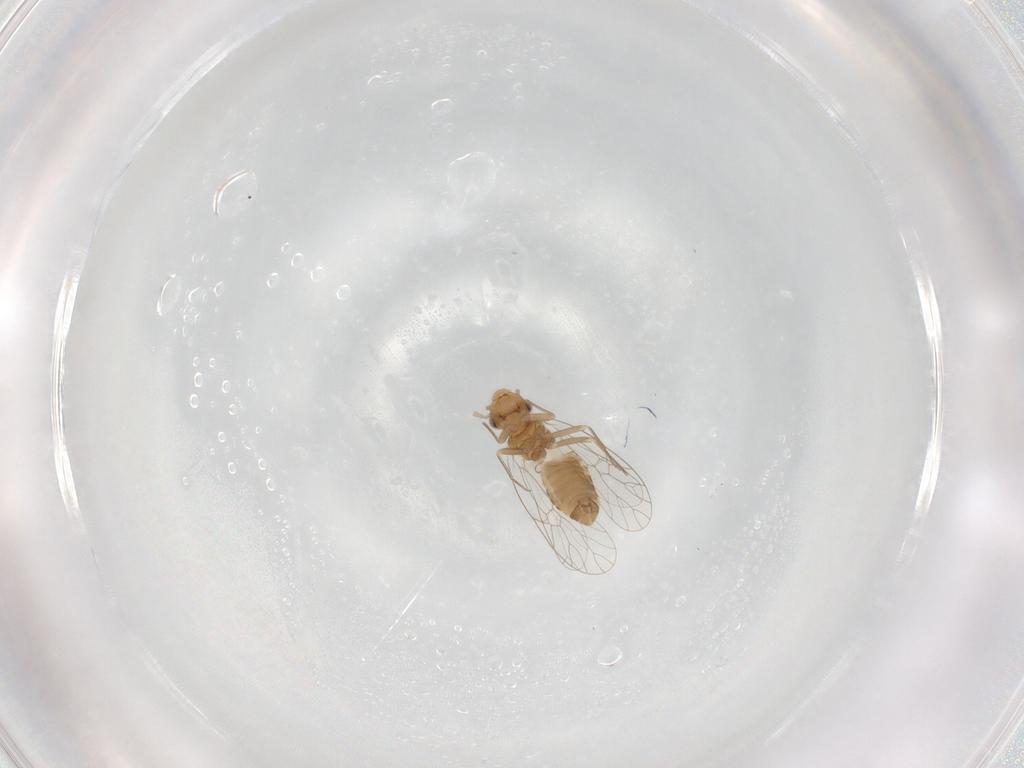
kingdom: Animalia
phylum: Arthropoda
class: Insecta
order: Psocodea
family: Prionoglarididae
